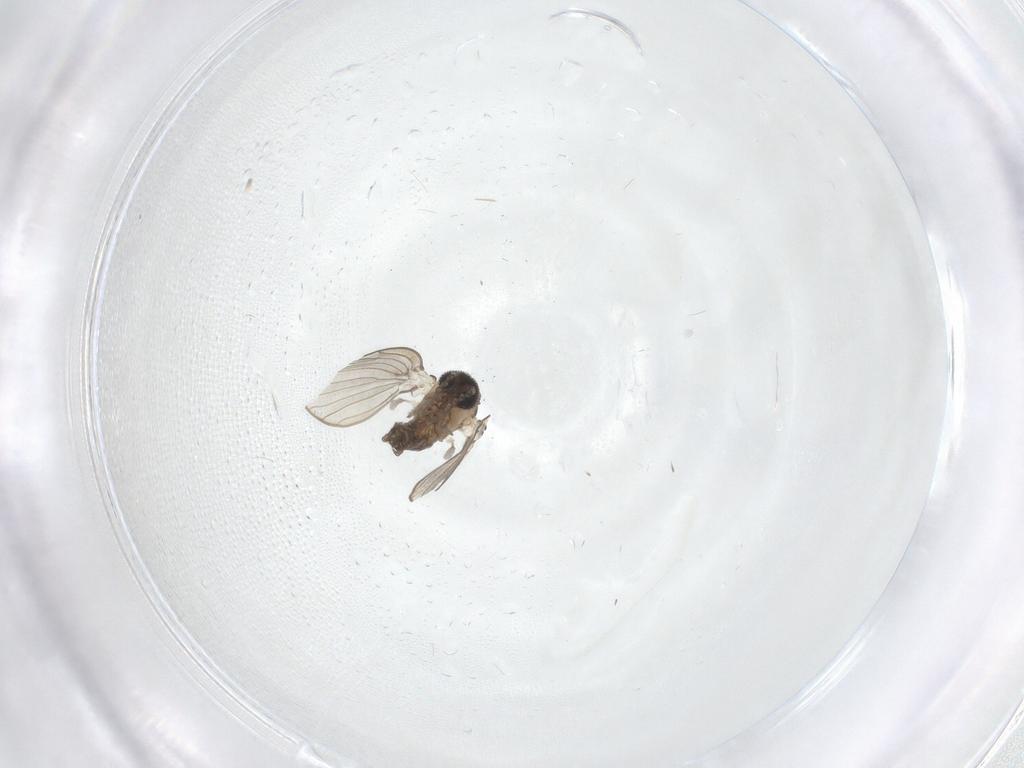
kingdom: Animalia
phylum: Arthropoda
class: Insecta
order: Diptera
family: Psychodidae
